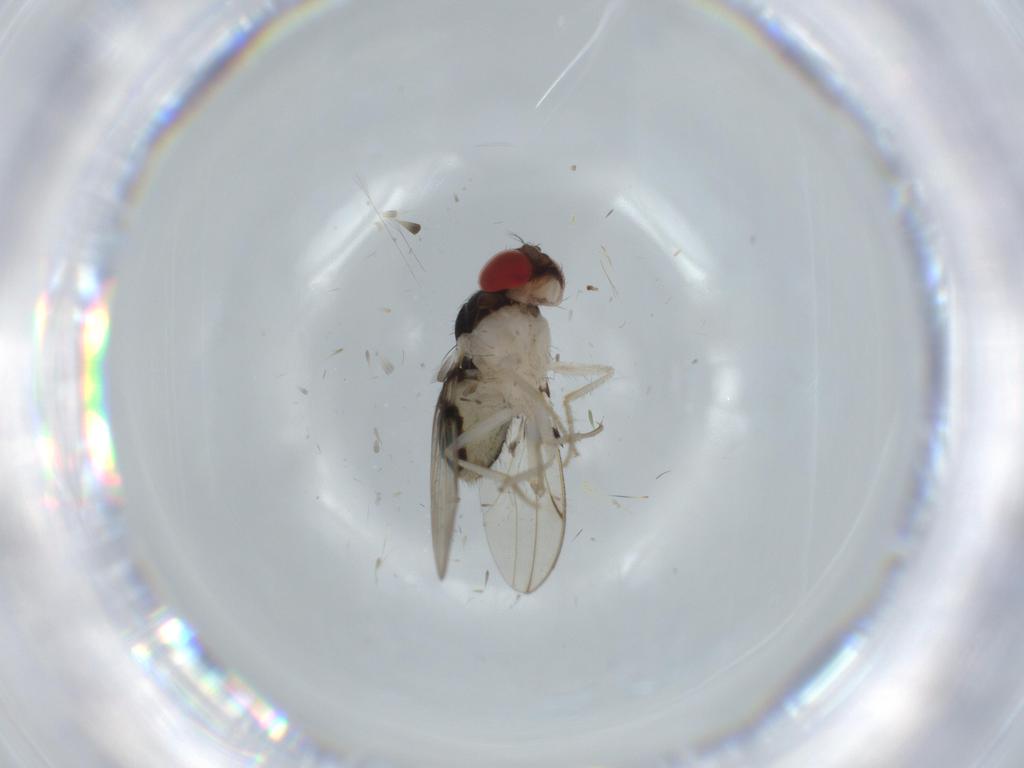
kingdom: Animalia
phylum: Arthropoda
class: Insecta
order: Diptera
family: Drosophilidae
